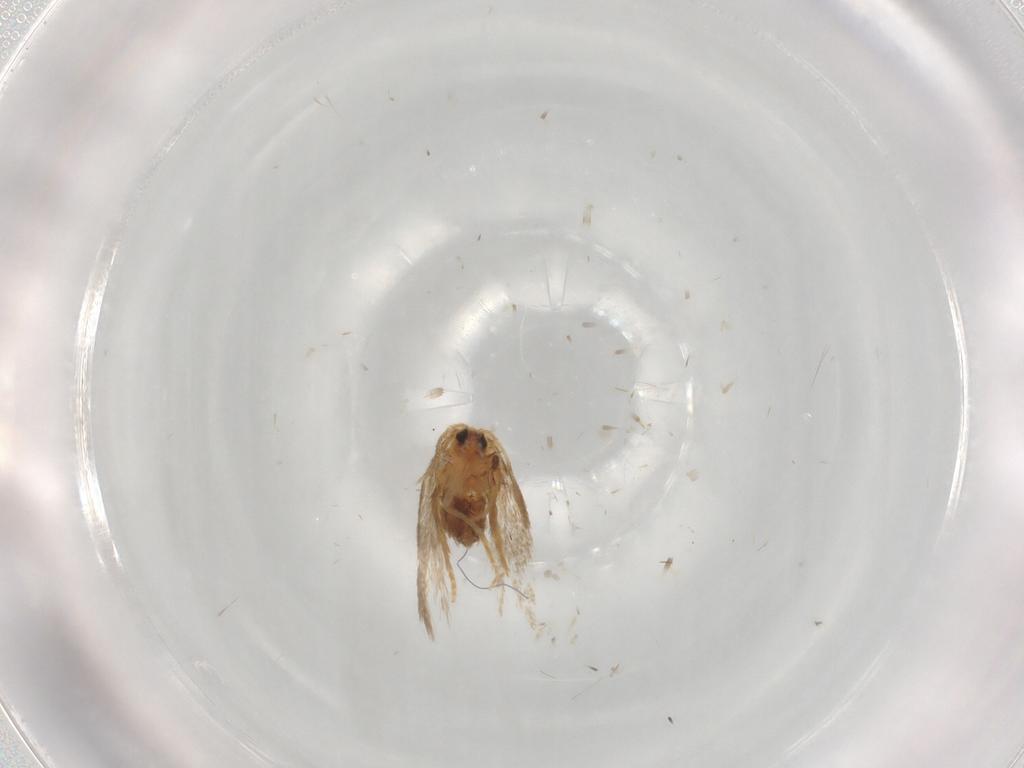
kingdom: Animalia
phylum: Arthropoda
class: Insecta
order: Lepidoptera
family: Nepticulidae
